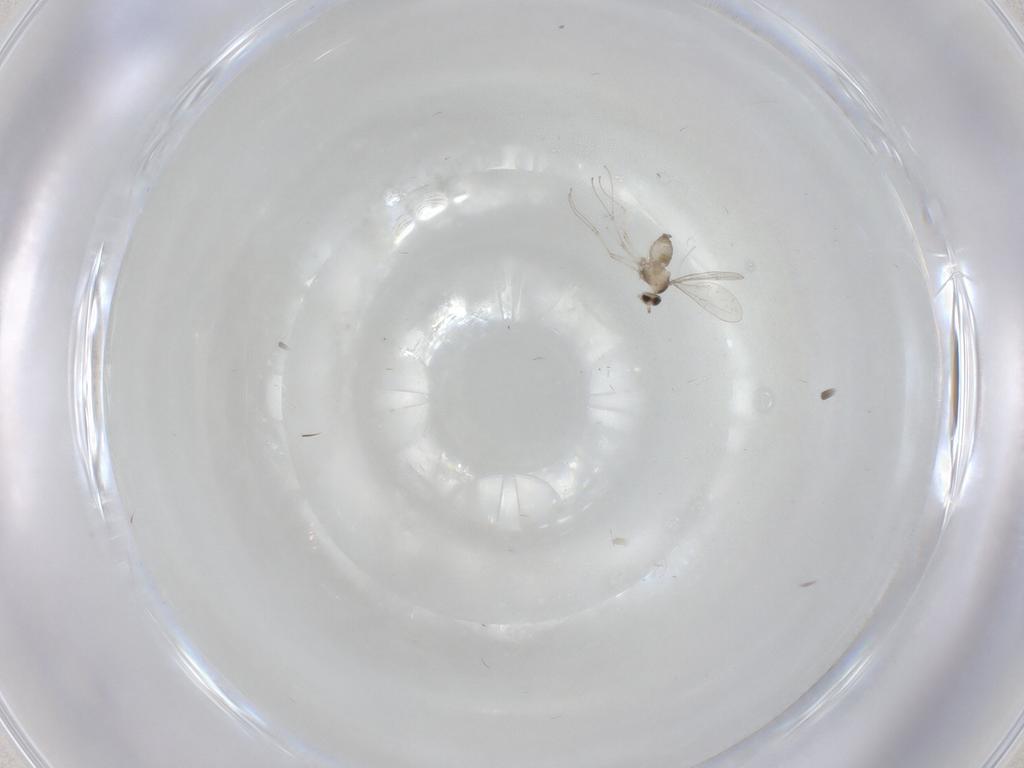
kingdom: Animalia
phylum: Arthropoda
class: Insecta
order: Diptera
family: Cecidomyiidae
